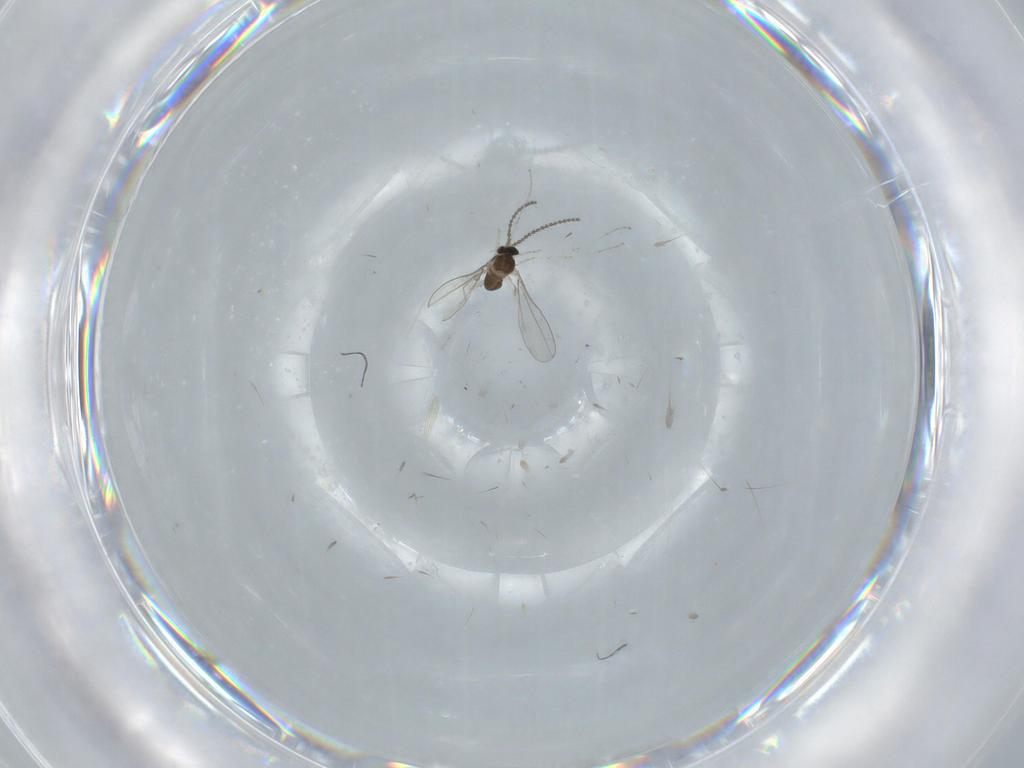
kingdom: Animalia
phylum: Arthropoda
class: Insecta
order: Diptera
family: Cecidomyiidae
